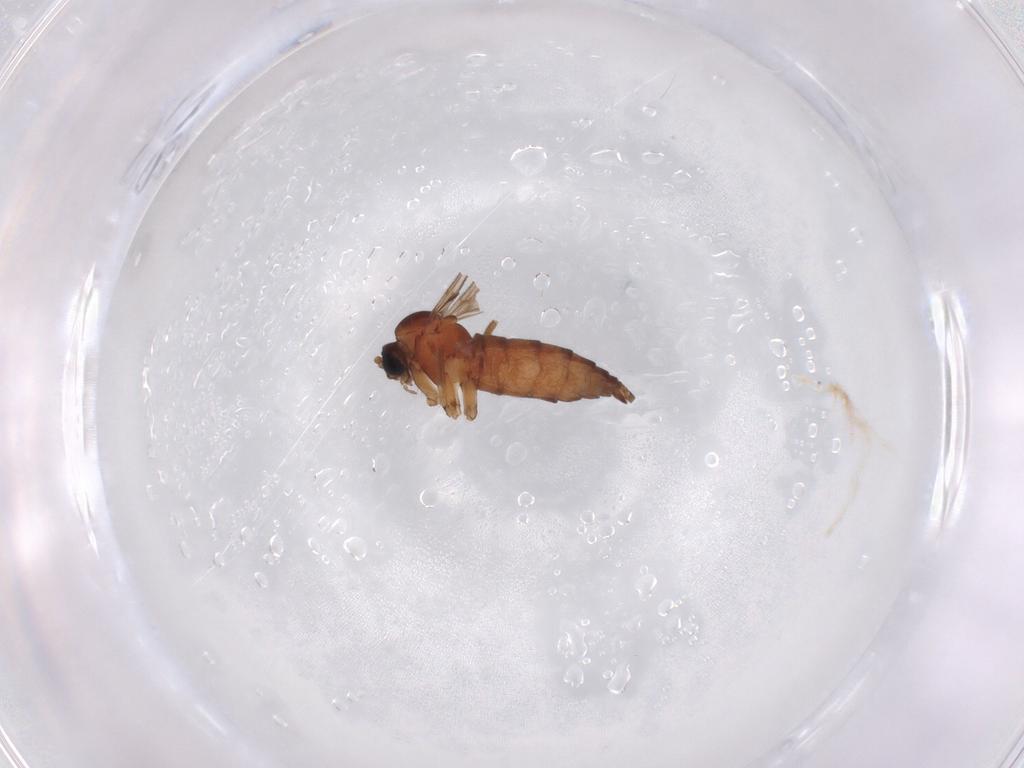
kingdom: Animalia
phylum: Arthropoda
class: Insecta
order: Diptera
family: Sciaridae
